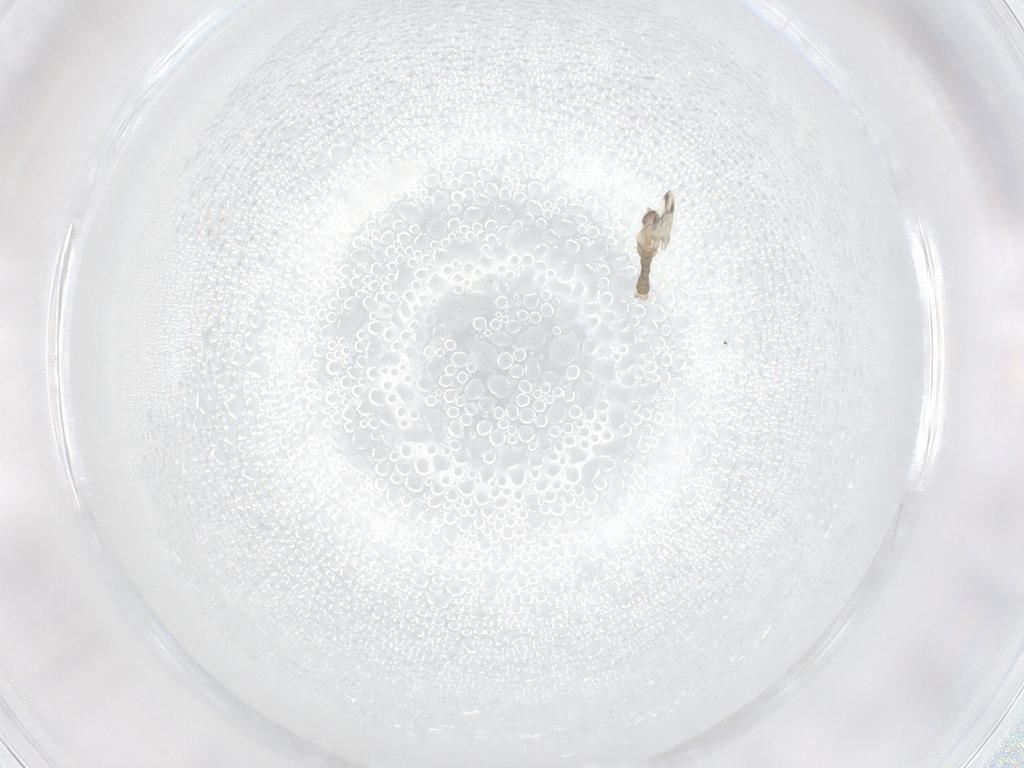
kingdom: Animalia
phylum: Arthropoda
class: Insecta
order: Diptera
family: Cecidomyiidae
